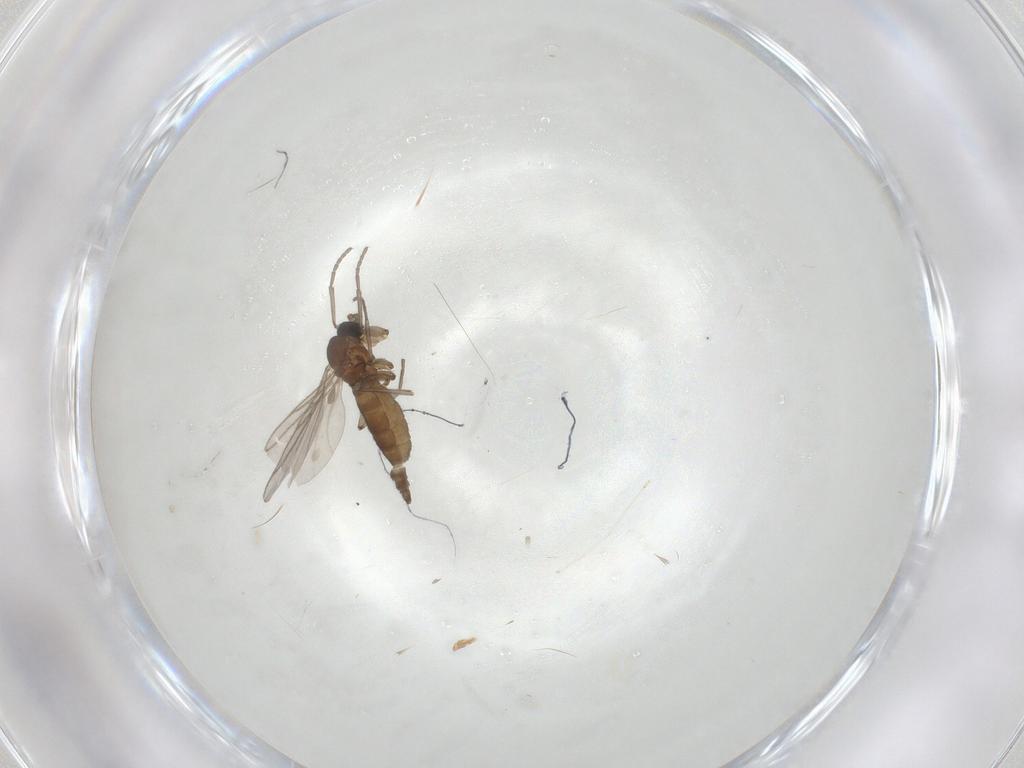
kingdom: Animalia
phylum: Arthropoda
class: Insecta
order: Diptera
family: Cecidomyiidae
